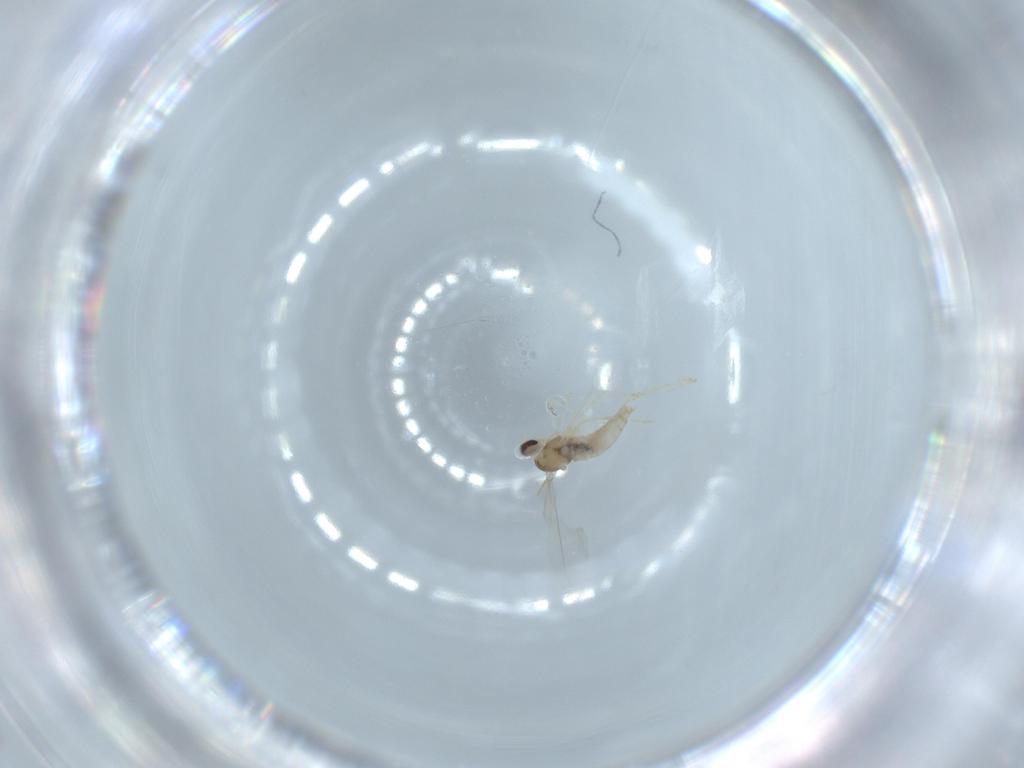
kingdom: Animalia
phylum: Arthropoda
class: Insecta
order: Diptera
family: Cecidomyiidae
